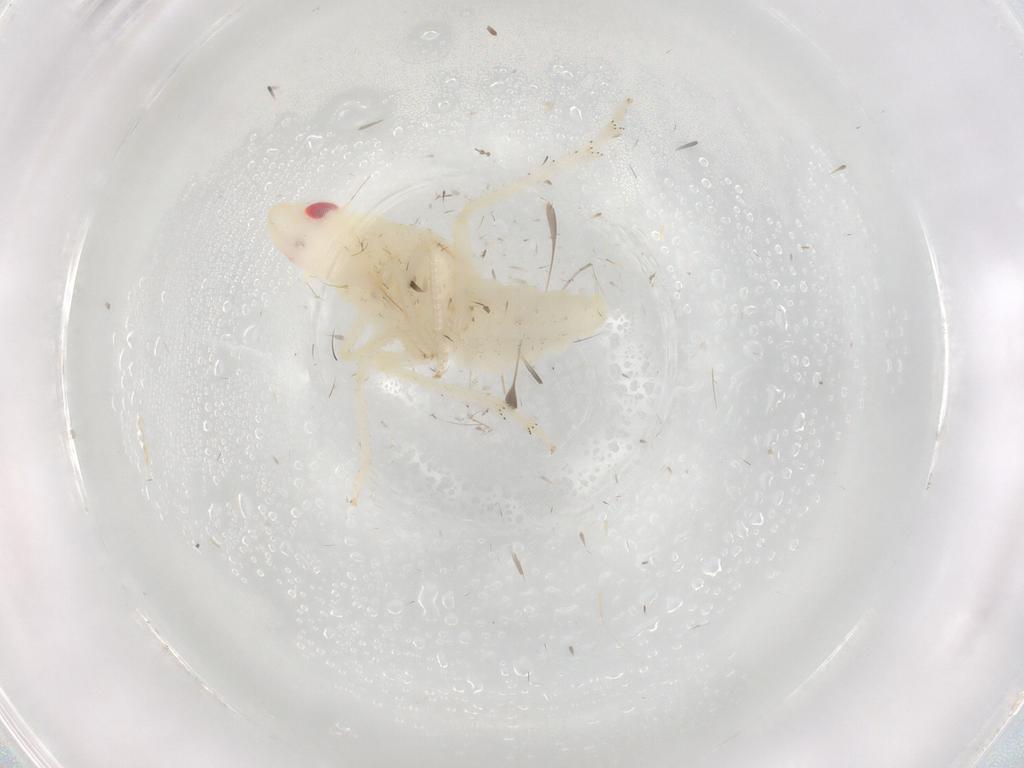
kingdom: Animalia
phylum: Arthropoda
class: Insecta
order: Hemiptera
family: Tropiduchidae
